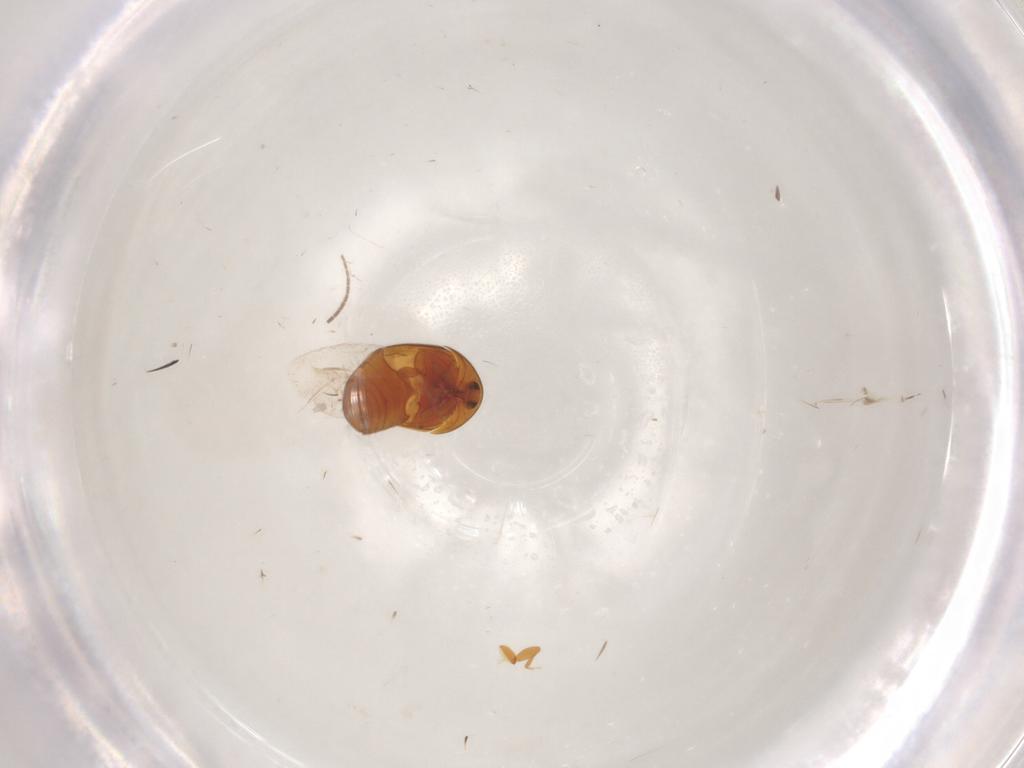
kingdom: Animalia
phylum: Arthropoda
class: Insecta
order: Coleoptera
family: Corylophidae
